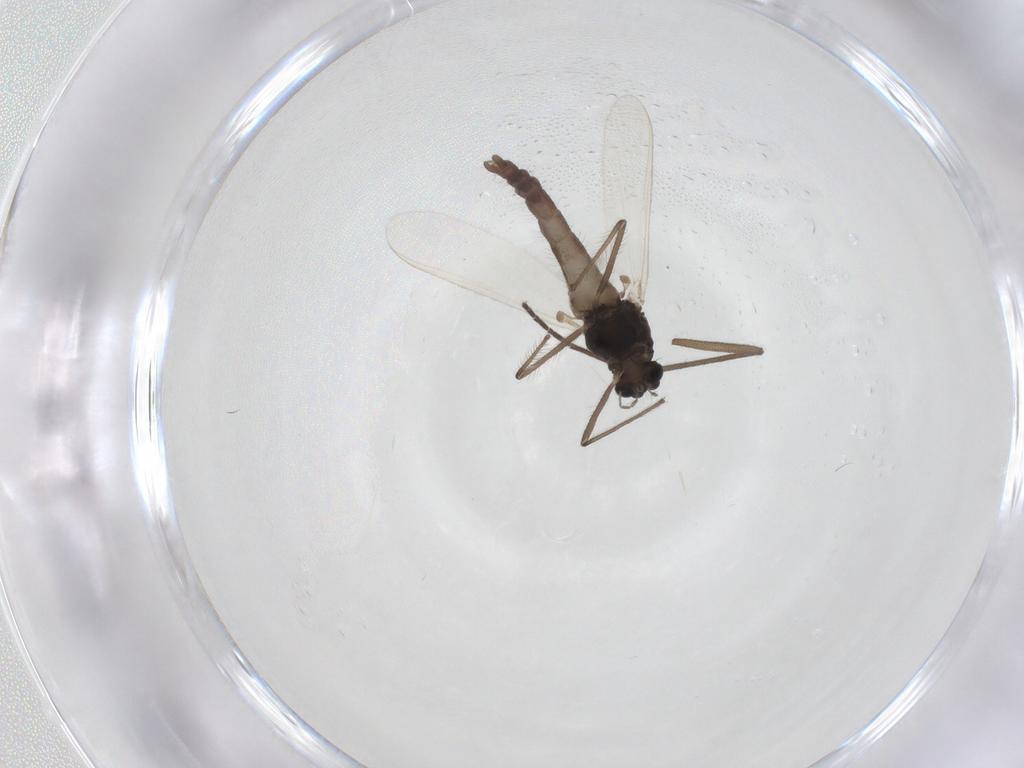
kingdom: Animalia
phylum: Arthropoda
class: Insecta
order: Diptera
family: Chironomidae
